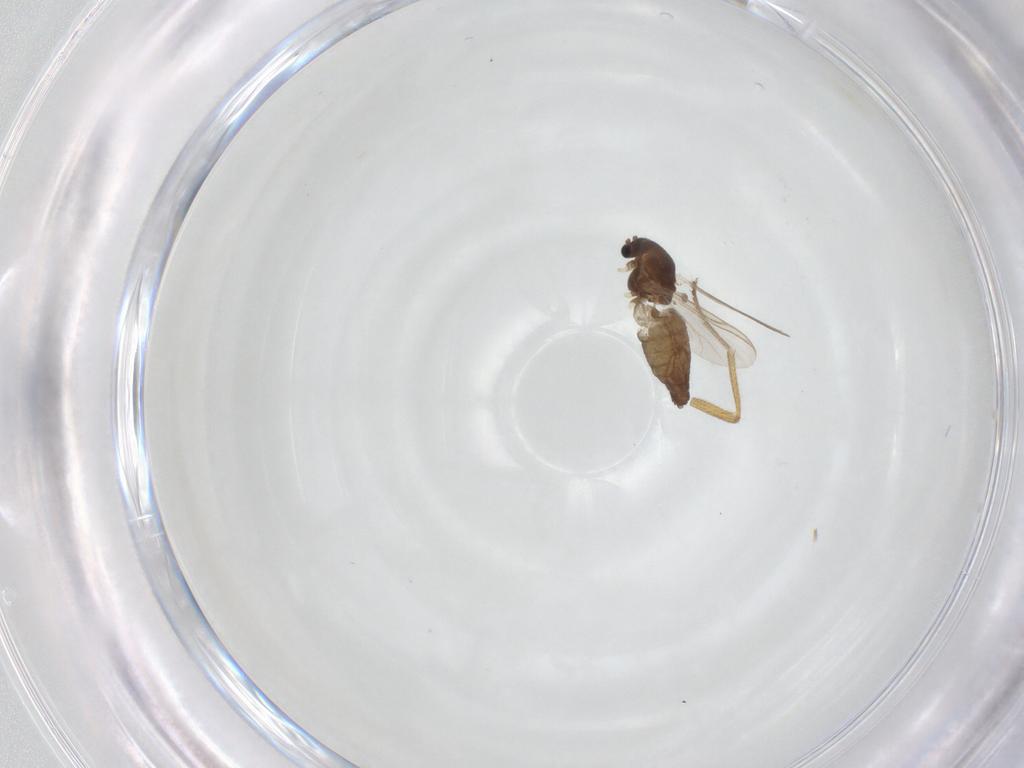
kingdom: Animalia
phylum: Arthropoda
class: Insecta
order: Diptera
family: Chironomidae
